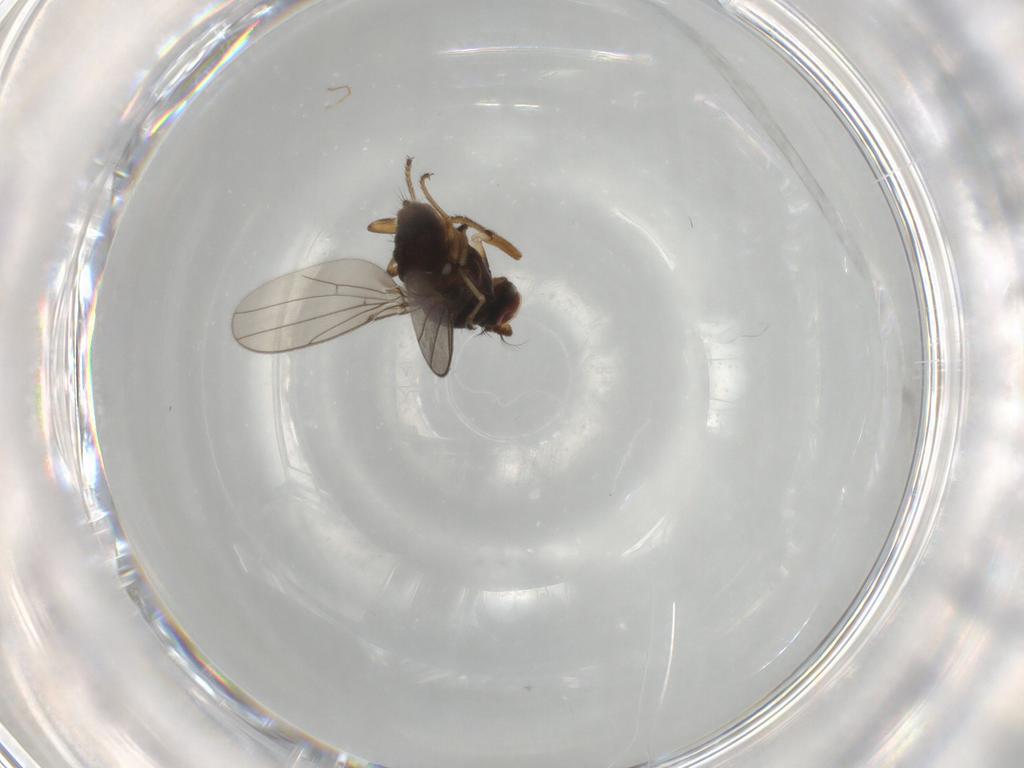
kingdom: Animalia
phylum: Arthropoda
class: Insecta
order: Diptera
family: Ephydridae
